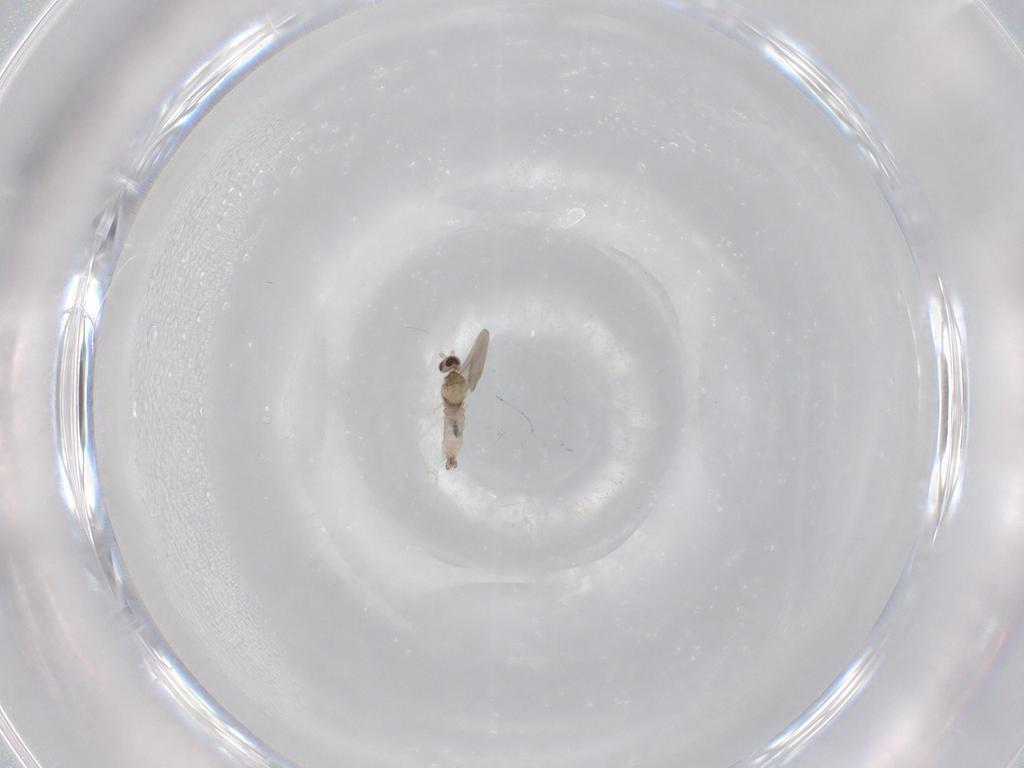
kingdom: Animalia
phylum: Arthropoda
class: Insecta
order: Diptera
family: Cecidomyiidae
